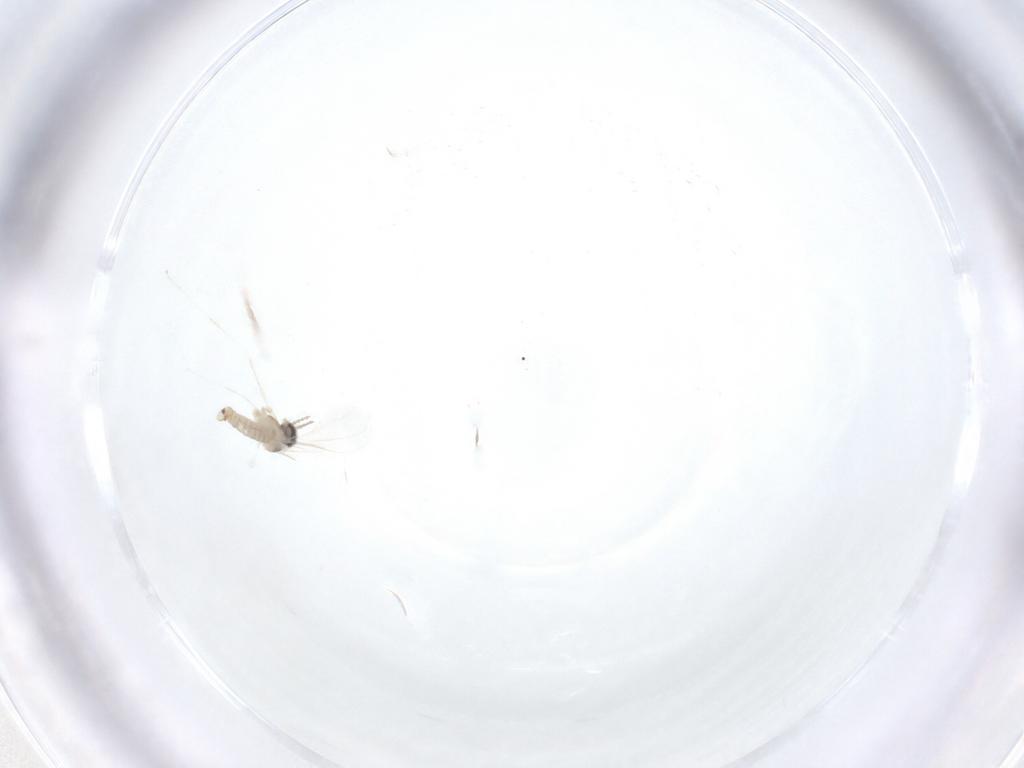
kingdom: Animalia
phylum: Arthropoda
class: Insecta
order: Diptera
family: Cecidomyiidae
